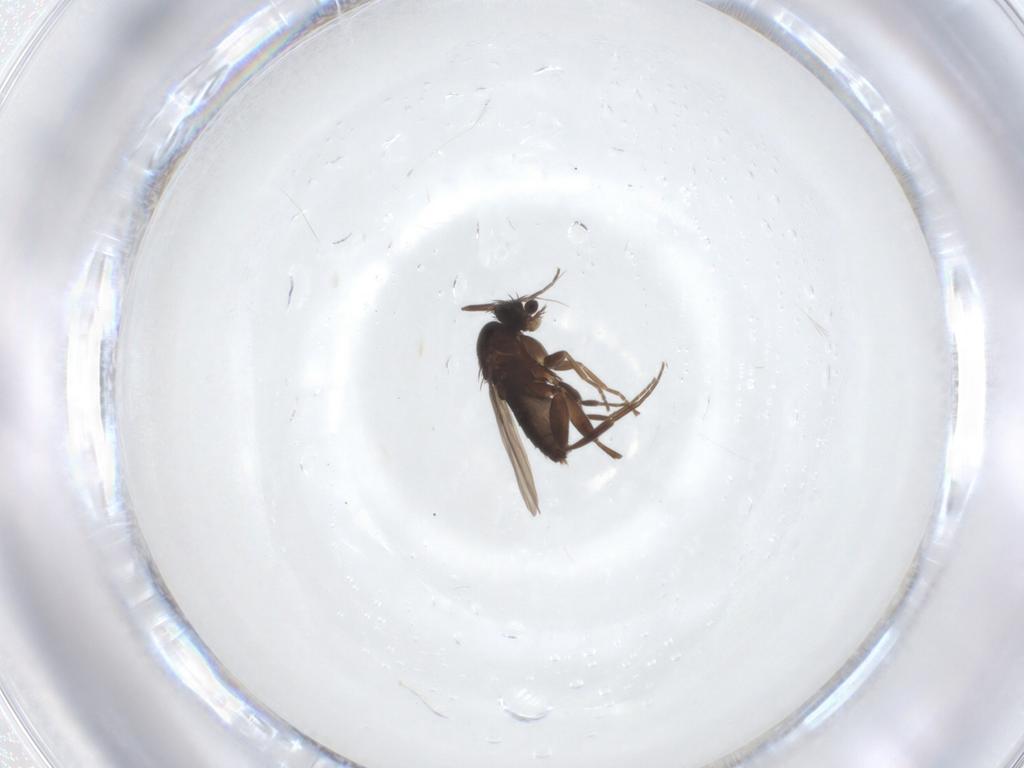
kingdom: Animalia
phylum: Arthropoda
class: Insecta
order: Diptera
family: Phoridae
